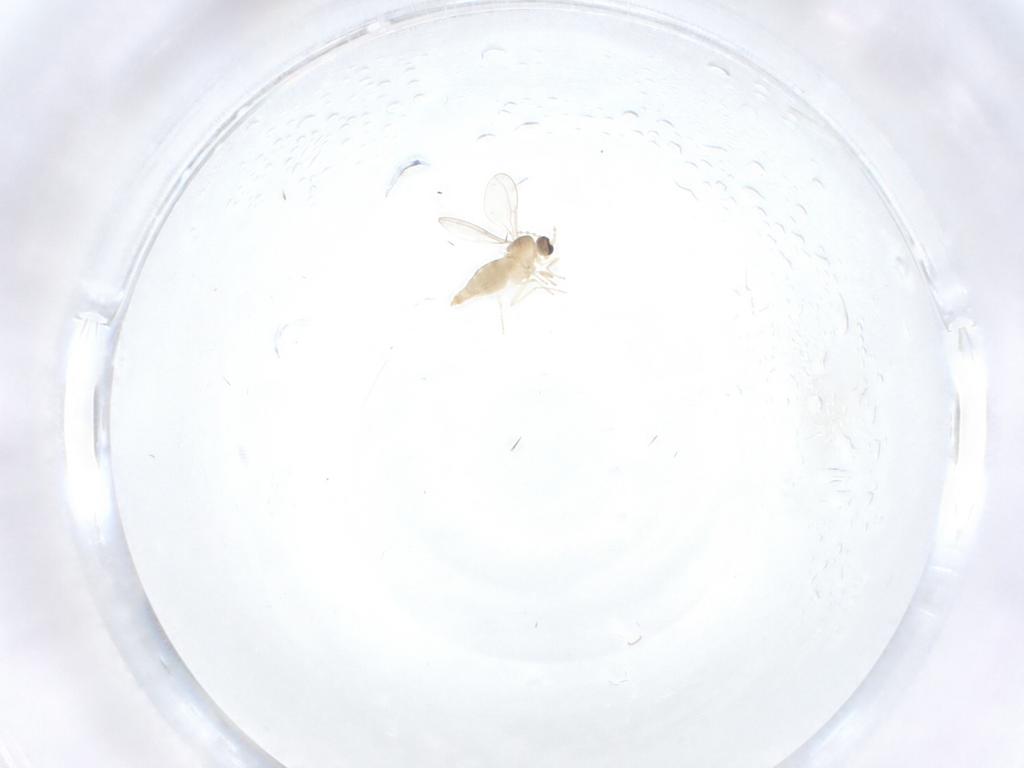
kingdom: Animalia
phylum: Arthropoda
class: Insecta
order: Diptera
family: Cecidomyiidae
